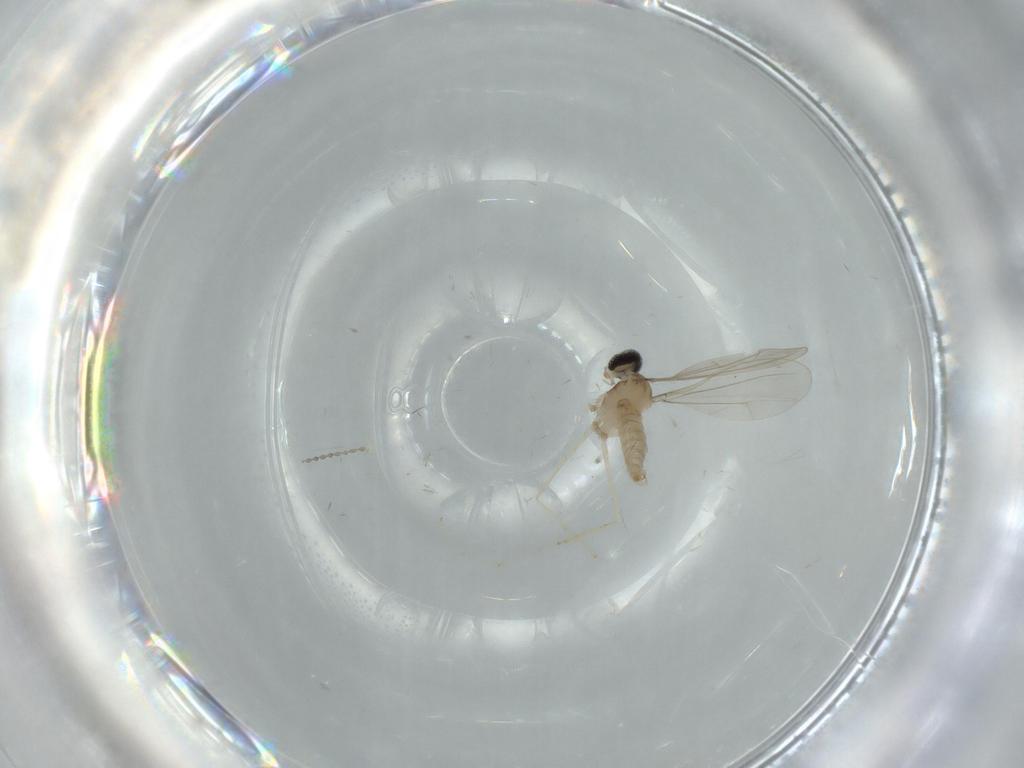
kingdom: Animalia
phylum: Arthropoda
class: Insecta
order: Diptera
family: Cecidomyiidae
